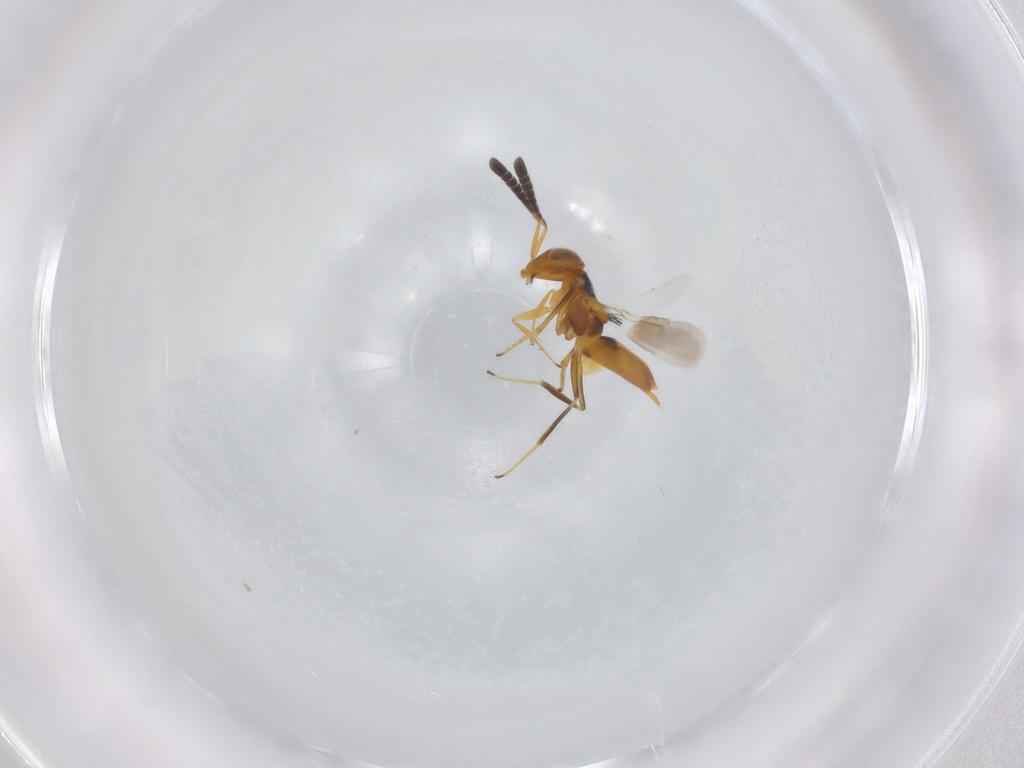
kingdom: Animalia
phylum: Arthropoda
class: Insecta
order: Hymenoptera
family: Encyrtidae
